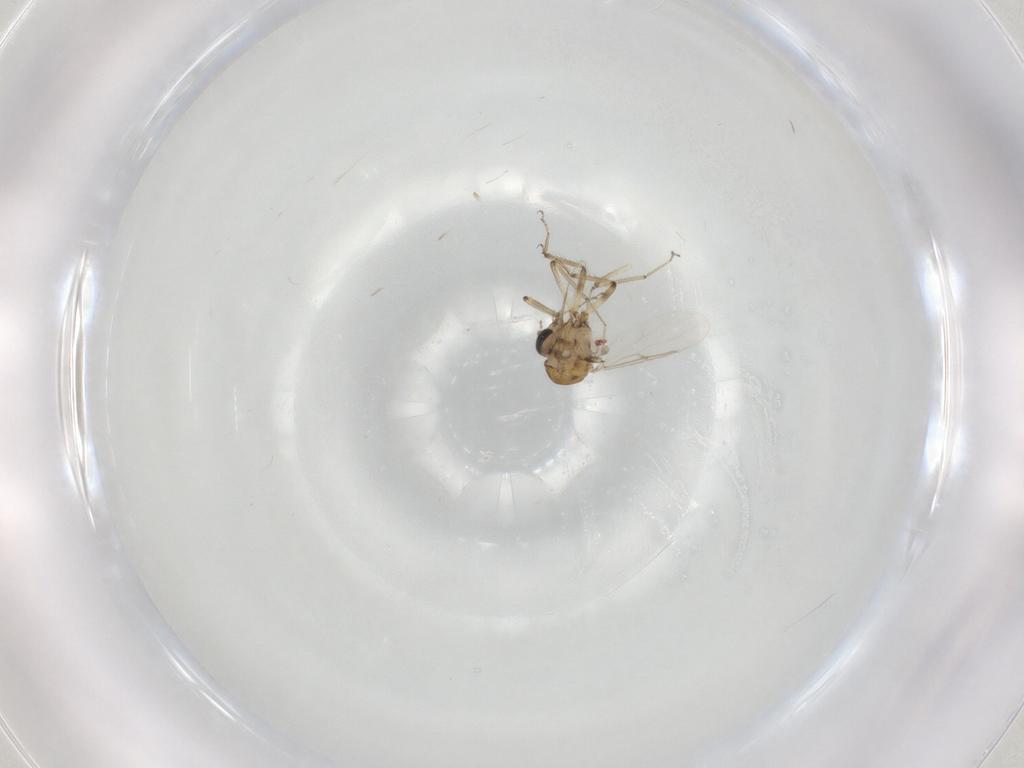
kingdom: Animalia
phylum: Arthropoda
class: Insecta
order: Diptera
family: Ceratopogonidae
